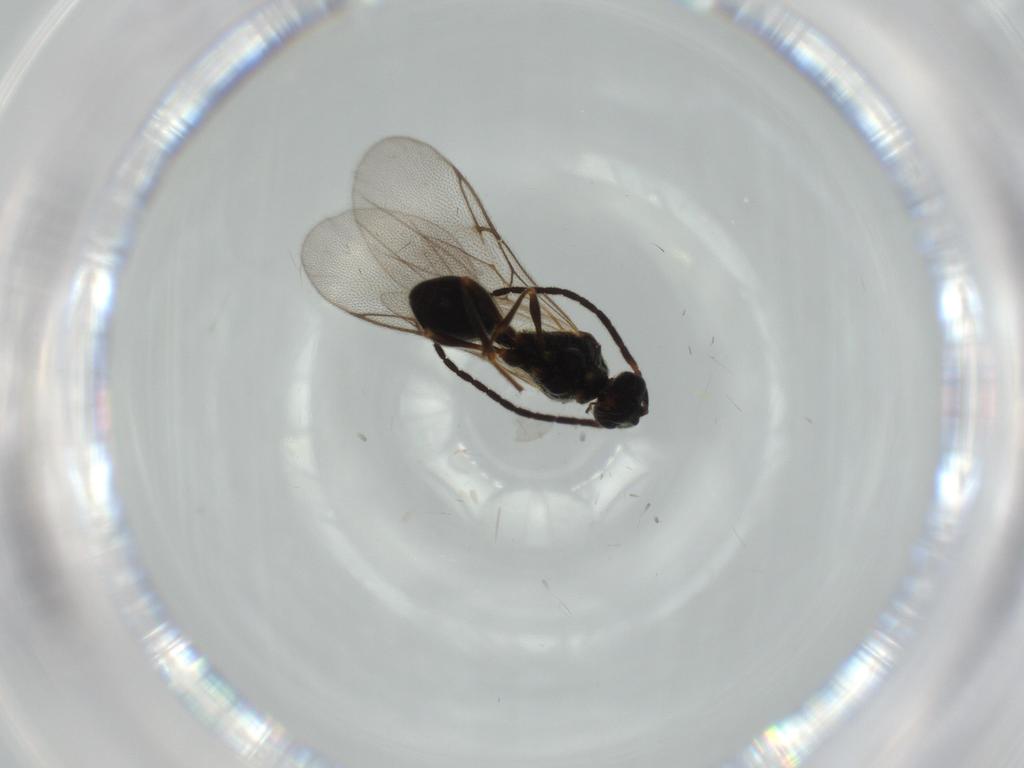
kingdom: Animalia
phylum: Arthropoda
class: Insecta
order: Hymenoptera
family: Diapriidae
